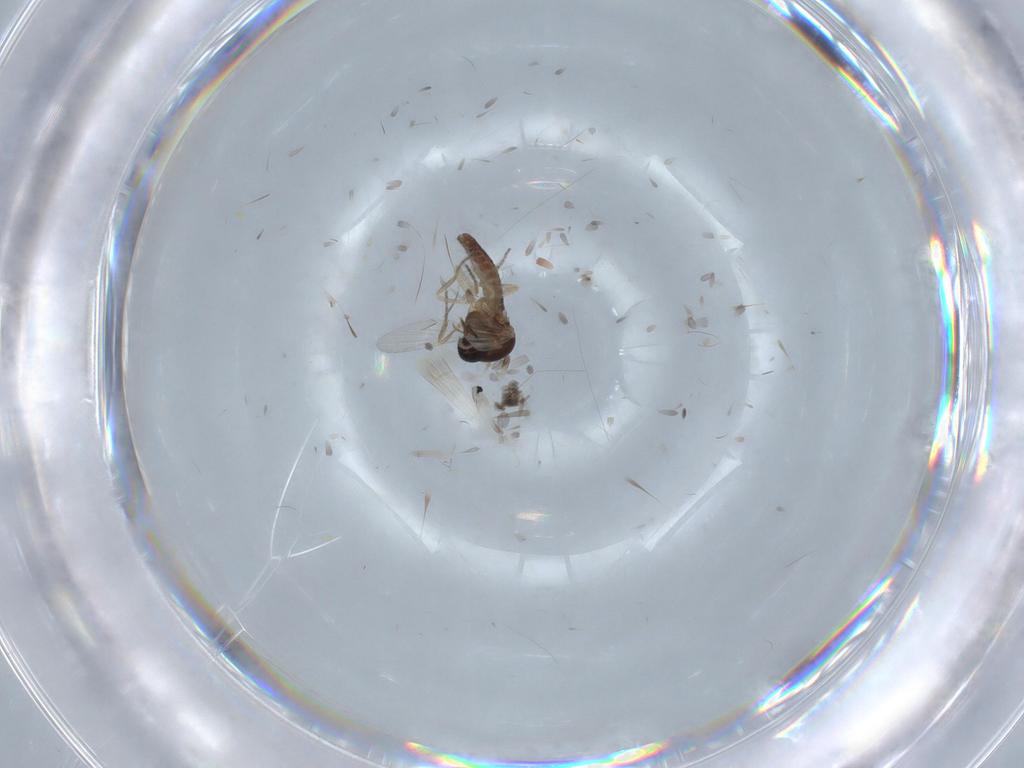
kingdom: Animalia
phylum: Arthropoda
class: Insecta
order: Diptera
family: Ceratopogonidae
